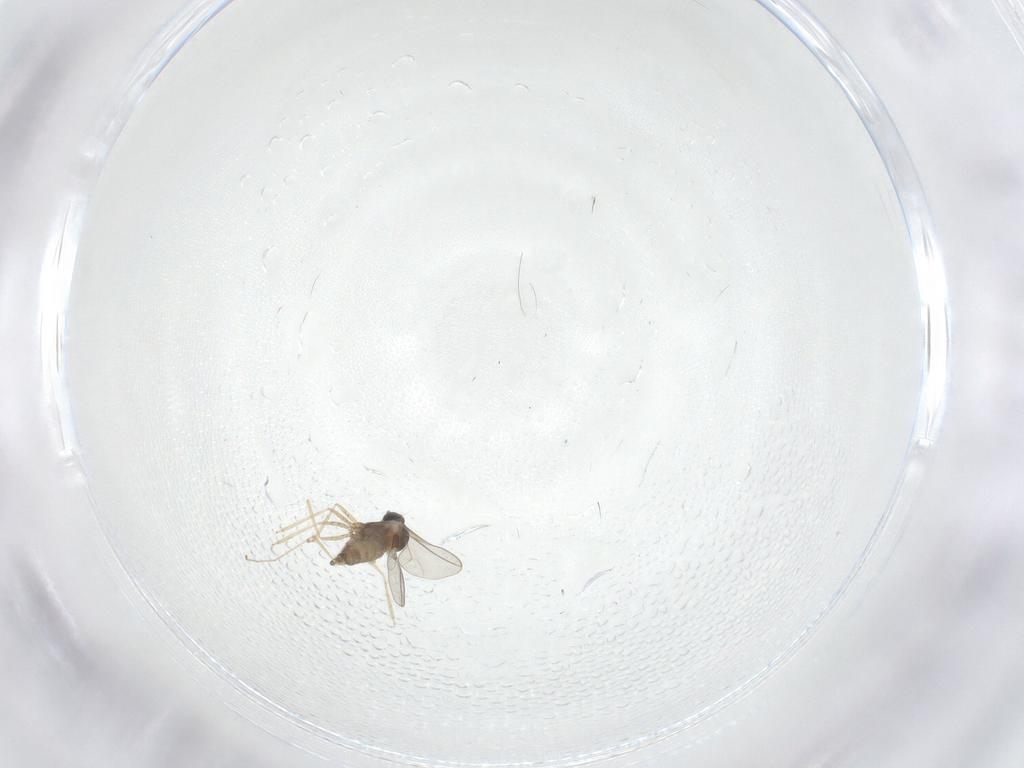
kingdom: Animalia
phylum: Arthropoda
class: Insecta
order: Diptera
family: Cecidomyiidae
